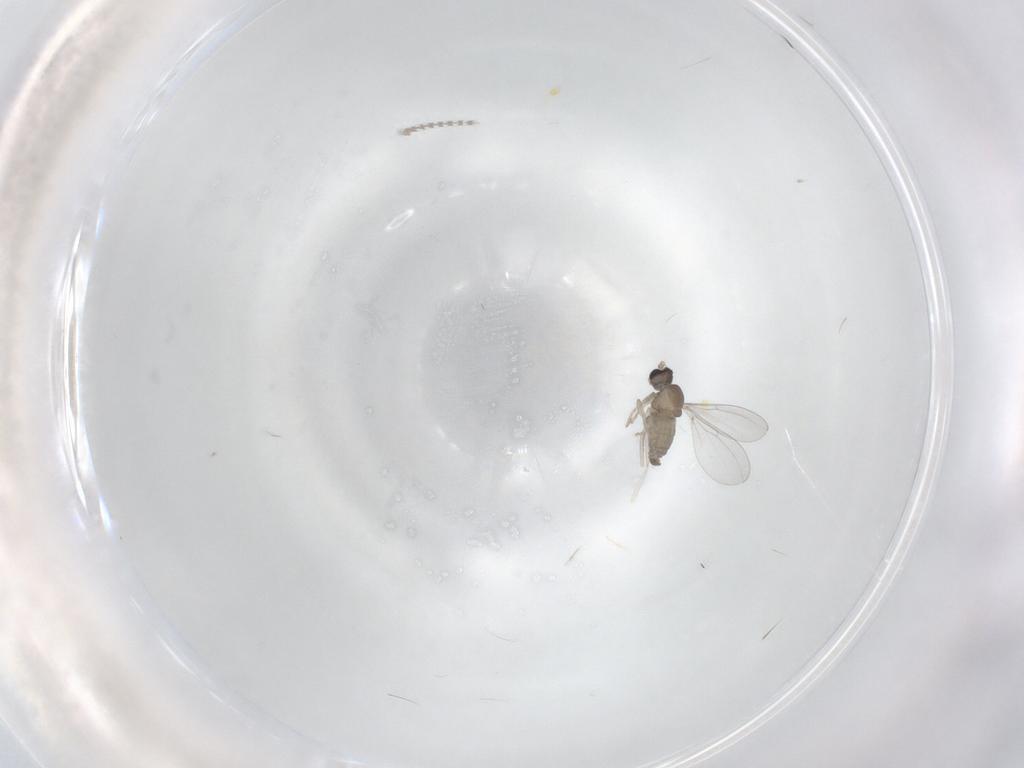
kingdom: Animalia
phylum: Arthropoda
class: Insecta
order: Diptera
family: Cecidomyiidae
